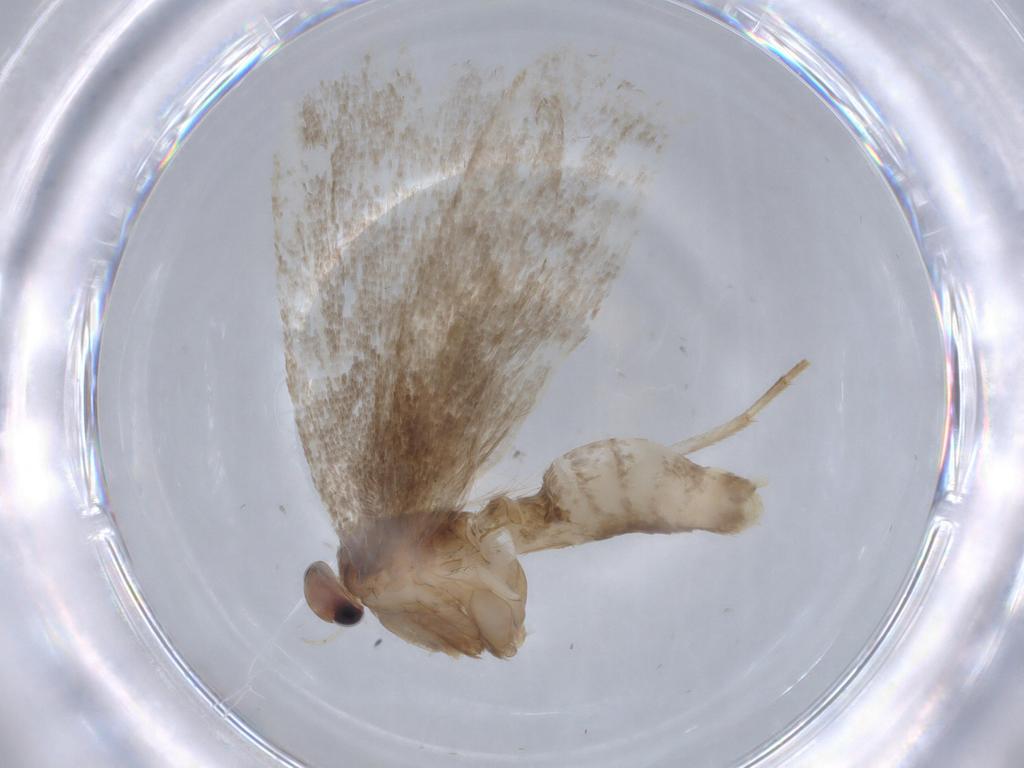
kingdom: Animalia
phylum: Arthropoda
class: Insecta
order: Lepidoptera
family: Argyresthiidae
